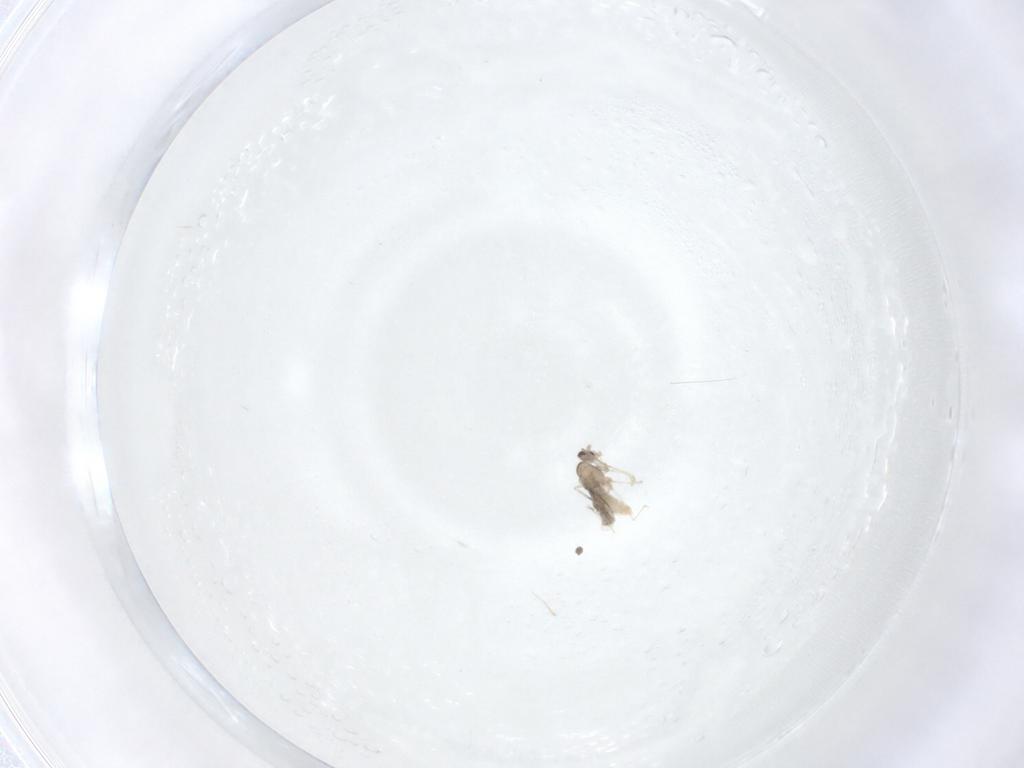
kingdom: Animalia
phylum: Arthropoda
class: Insecta
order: Diptera
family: Cecidomyiidae
